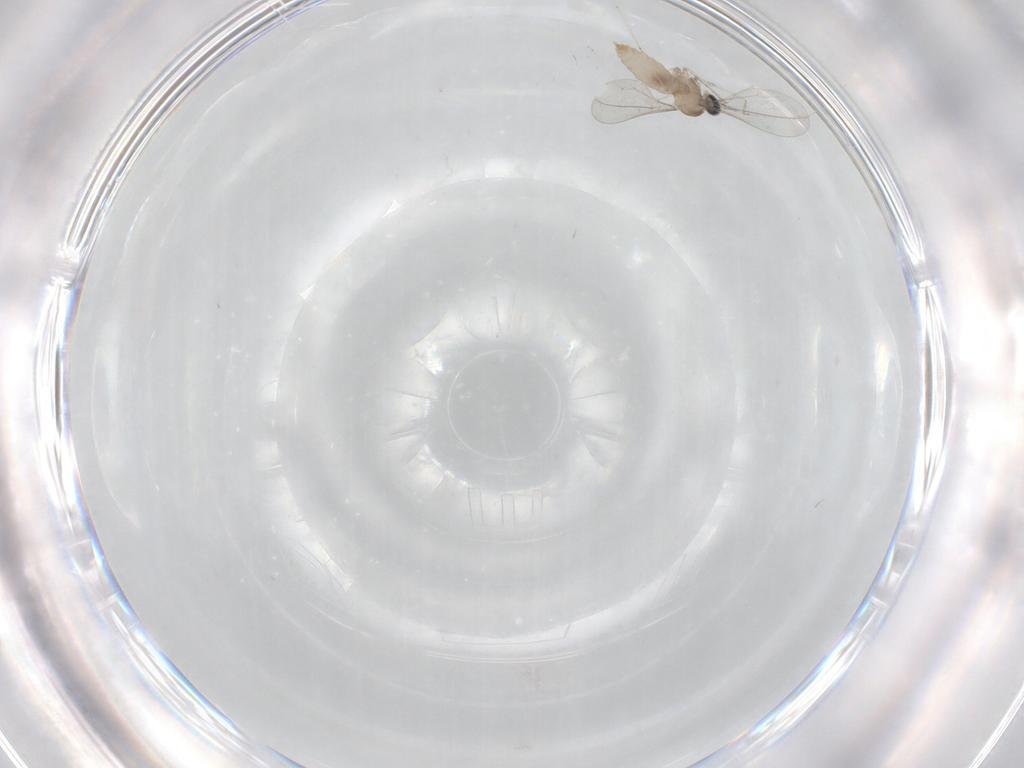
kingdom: Animalia
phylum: Arthropoda
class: Insecta
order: Diptera
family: Cecidomyiidae
